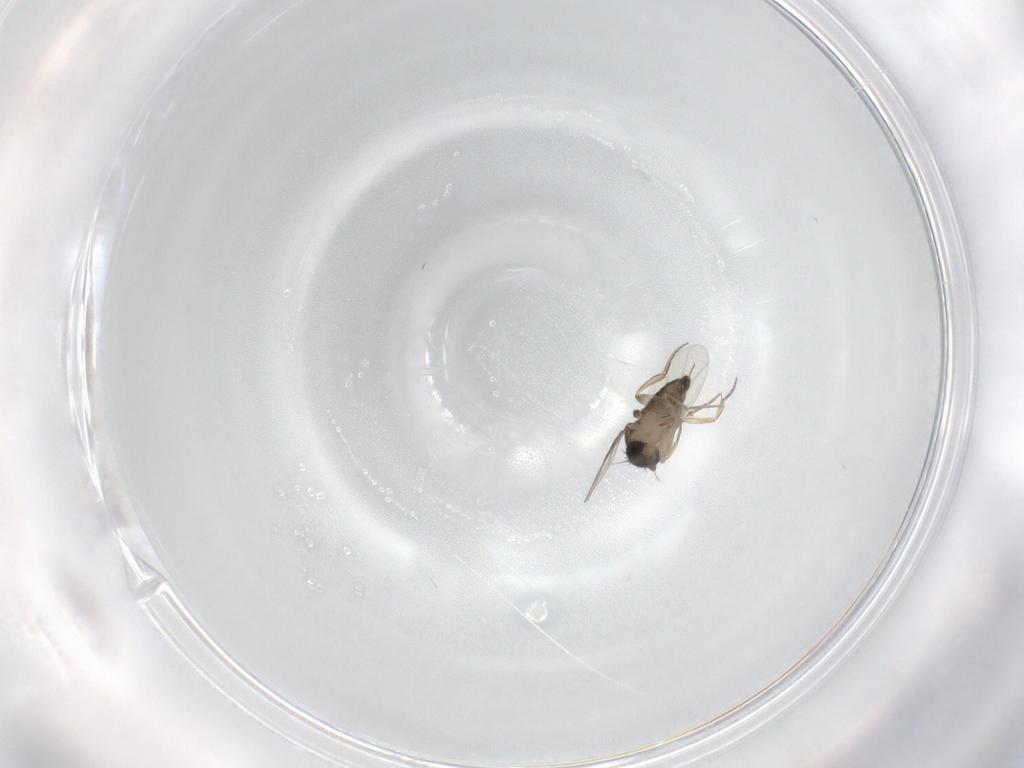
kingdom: Animalia
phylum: Arthropoda
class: Insecta
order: Diptera
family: Phoridae
